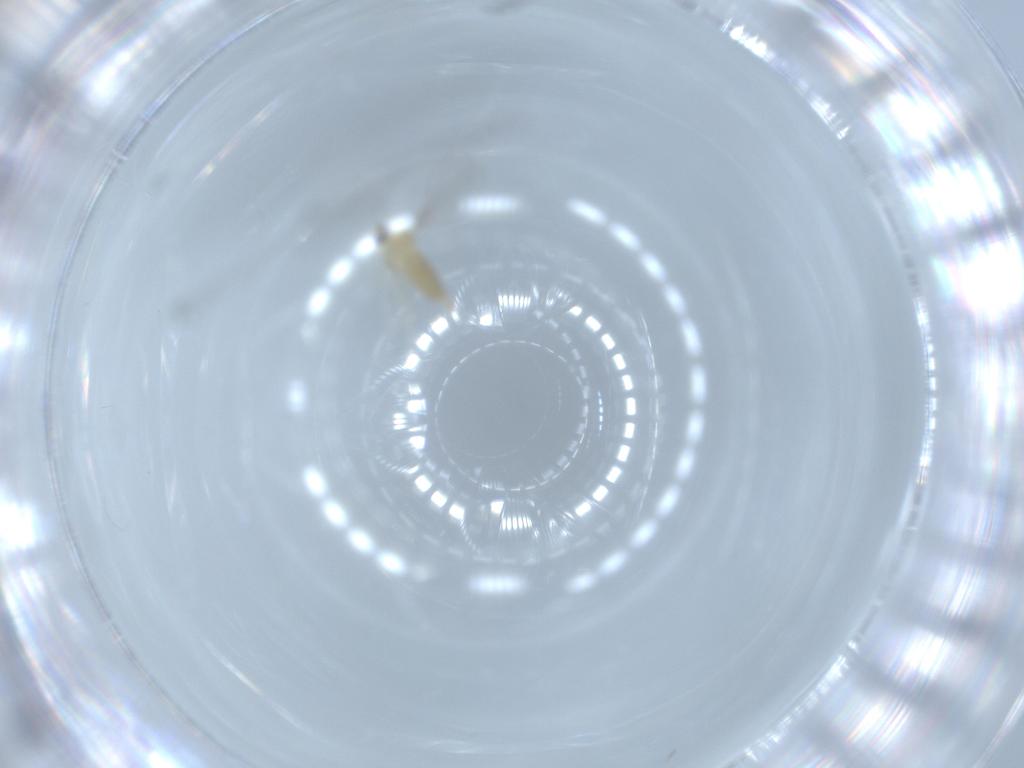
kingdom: Animalia
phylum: Arthropoda
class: Insecta
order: Diptera
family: Cecidomyiidae
